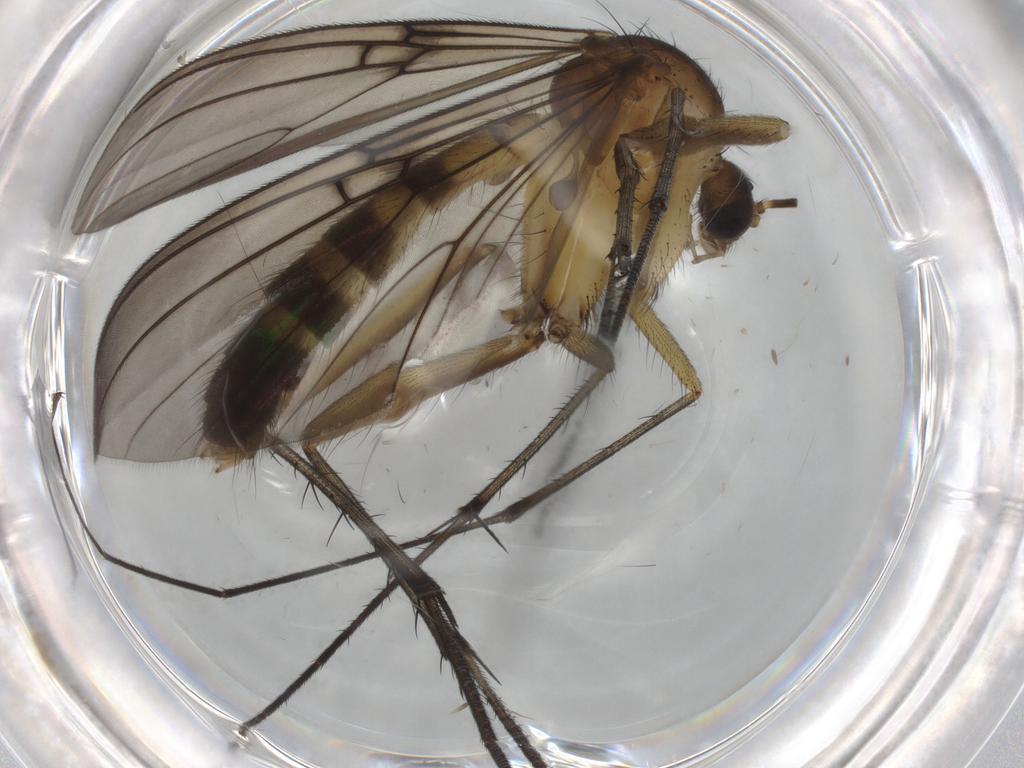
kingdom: Animalia
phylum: Arthropoda
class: Insecta
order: Diptera
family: Mycetophilidae
